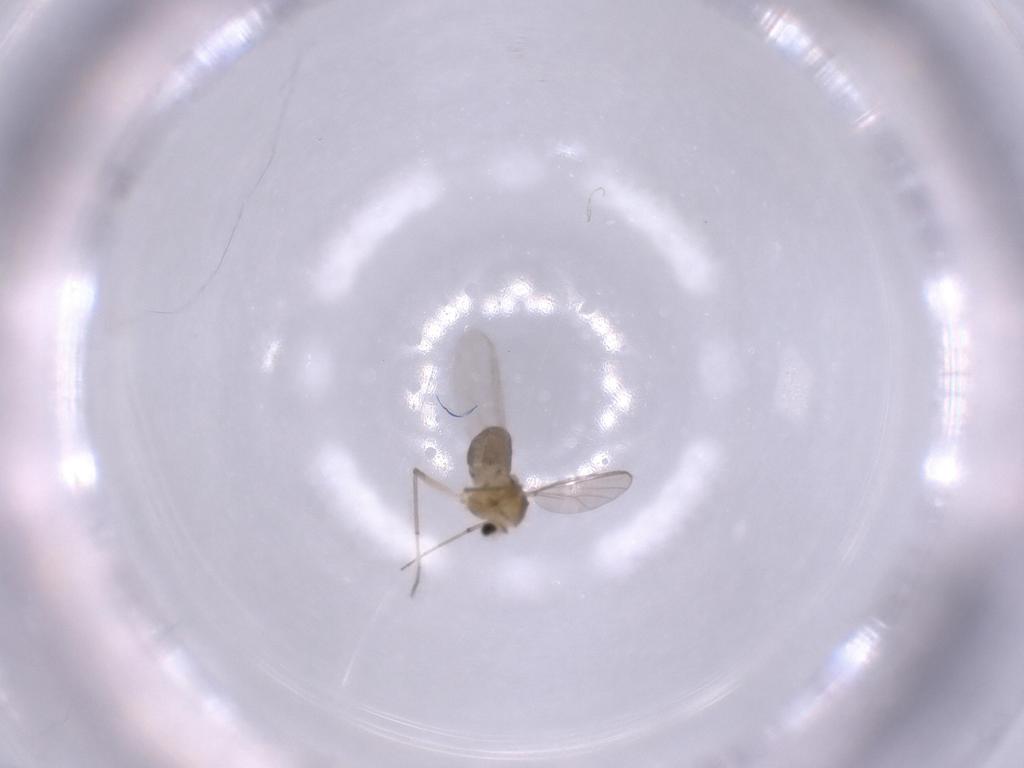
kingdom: Animalia
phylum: Arthropoda
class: Insecta
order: Diptera
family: Chironomidae
